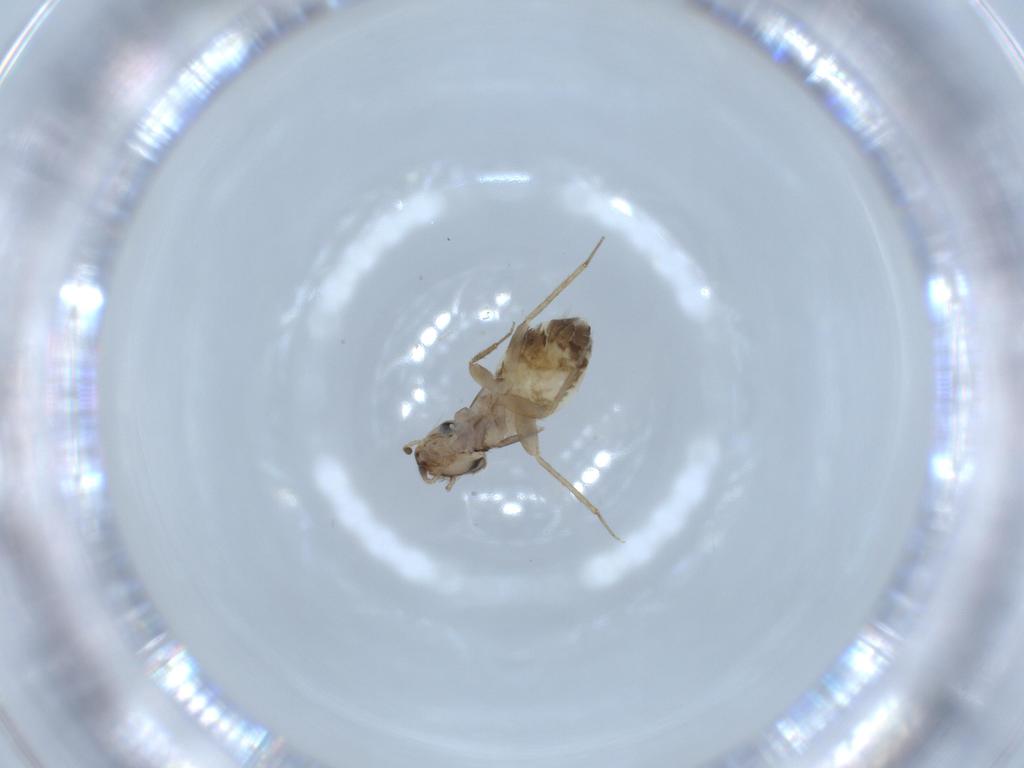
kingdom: Animalia
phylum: Arthropoda
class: Insecta
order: Psocodea
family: Lepidopsocidae
